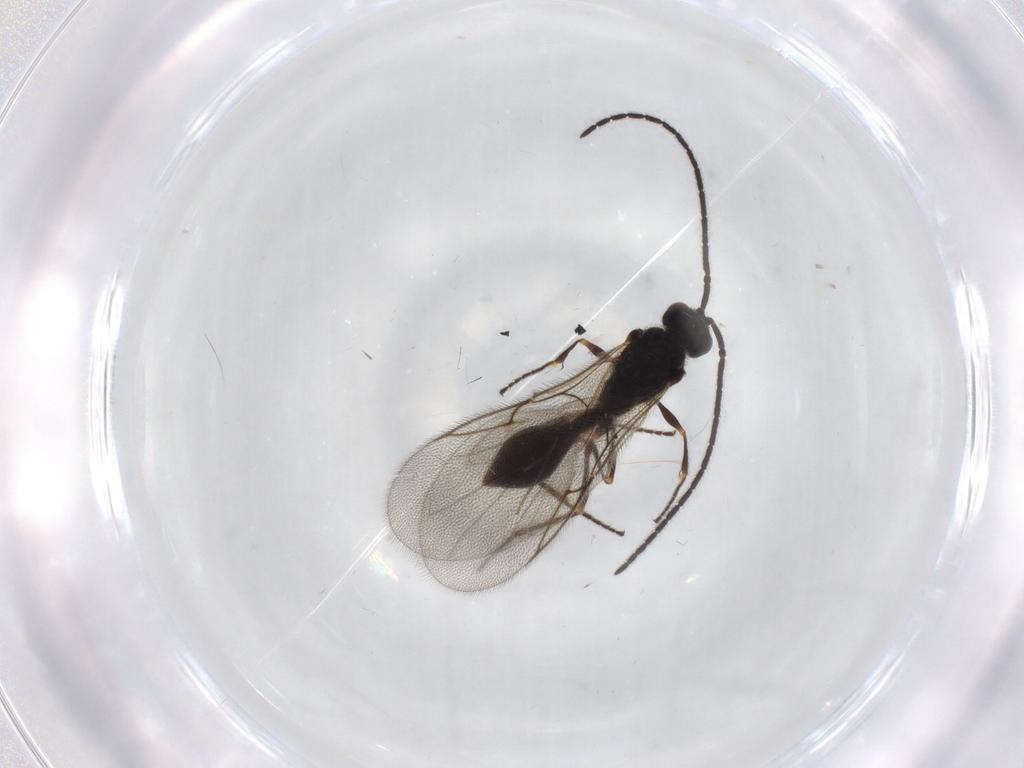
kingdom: Animalia
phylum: Arthropoda
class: Insecta
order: Hymenoptera
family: Diapriidae
